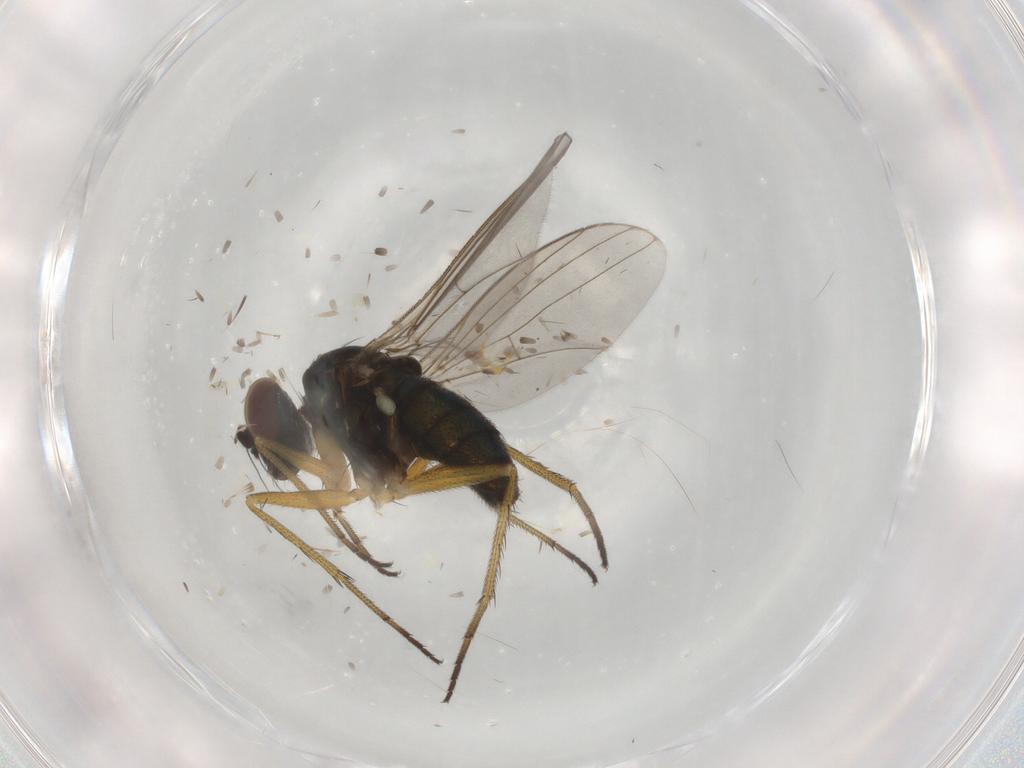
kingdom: Animalia
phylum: Arthropoda
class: Insecta
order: Diptera
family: Dolichopodidae
